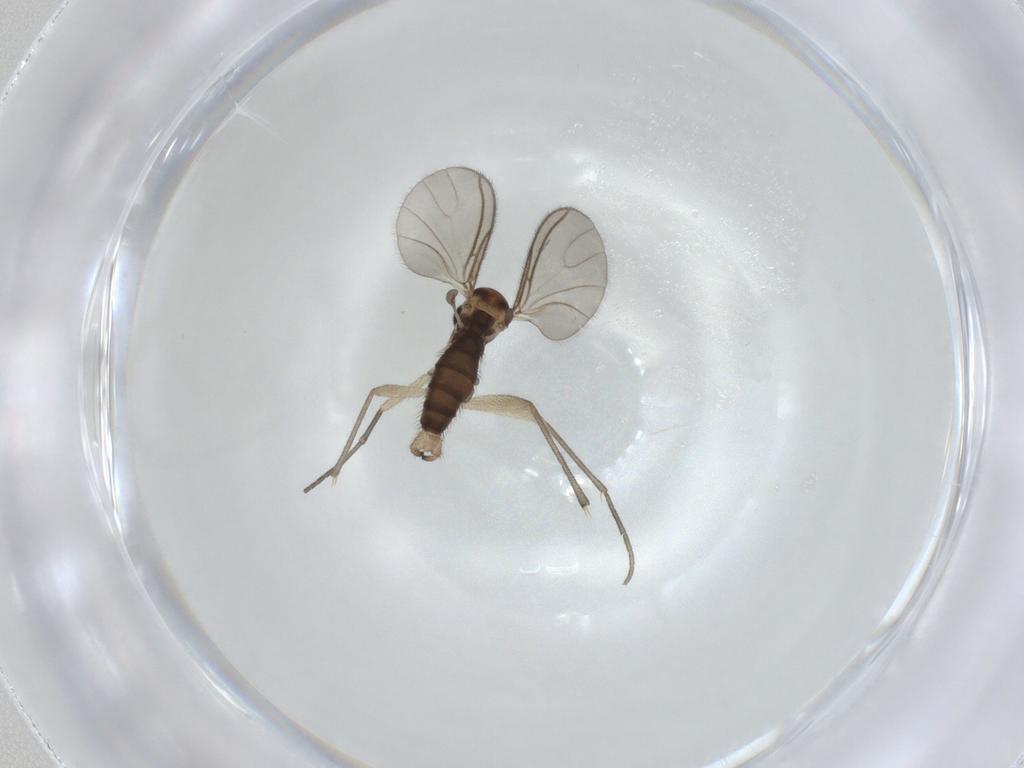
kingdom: Animalia
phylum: Arthropoda
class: Insecta
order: Diptera
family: Sciaridae
